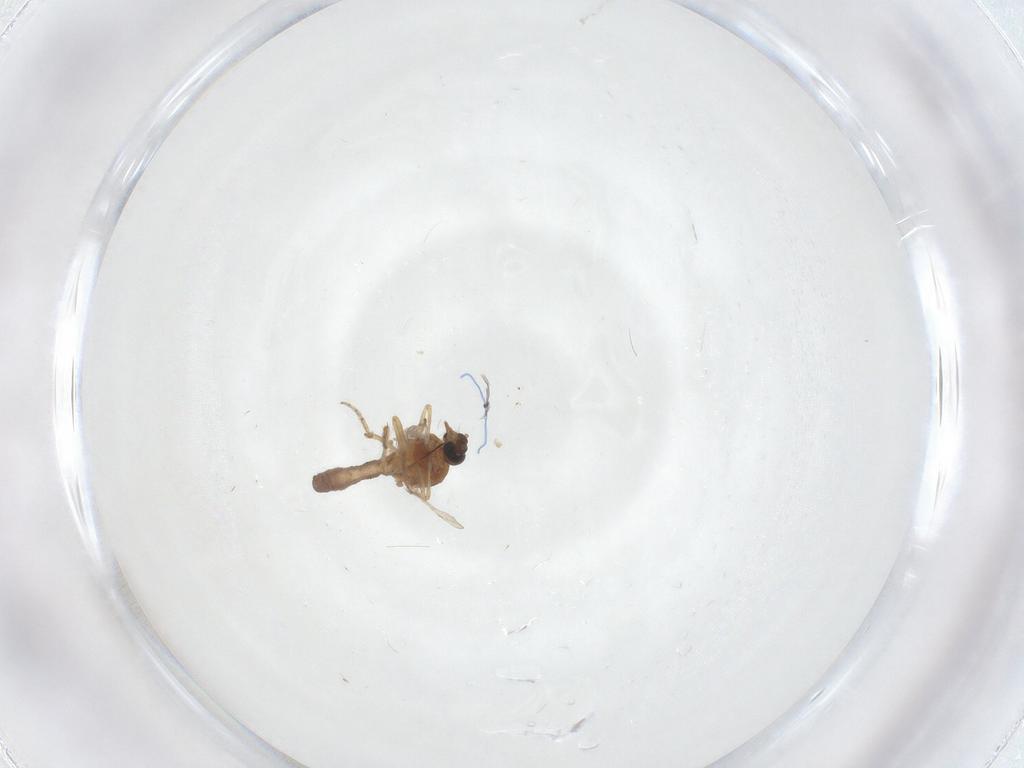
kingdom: Animalia
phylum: Arthropoda
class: Insecta
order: Diptera
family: Ceratopogonidae
